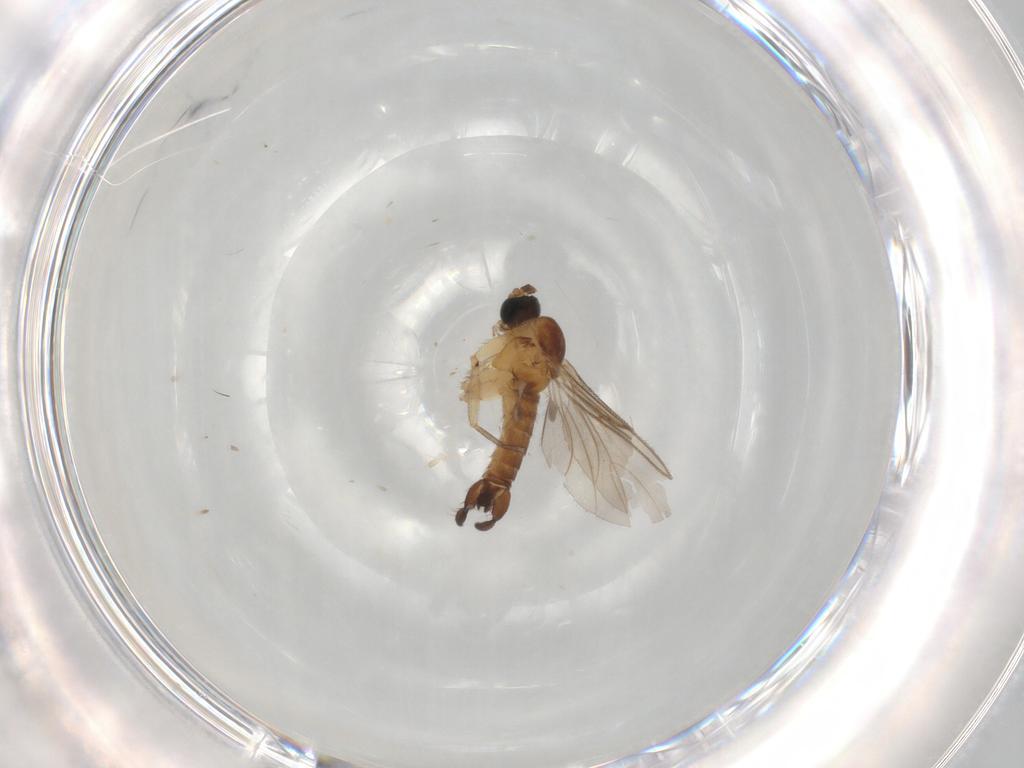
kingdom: Animalia
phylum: Arthropoda
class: Insecta
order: Diptera
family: Sciaridae
